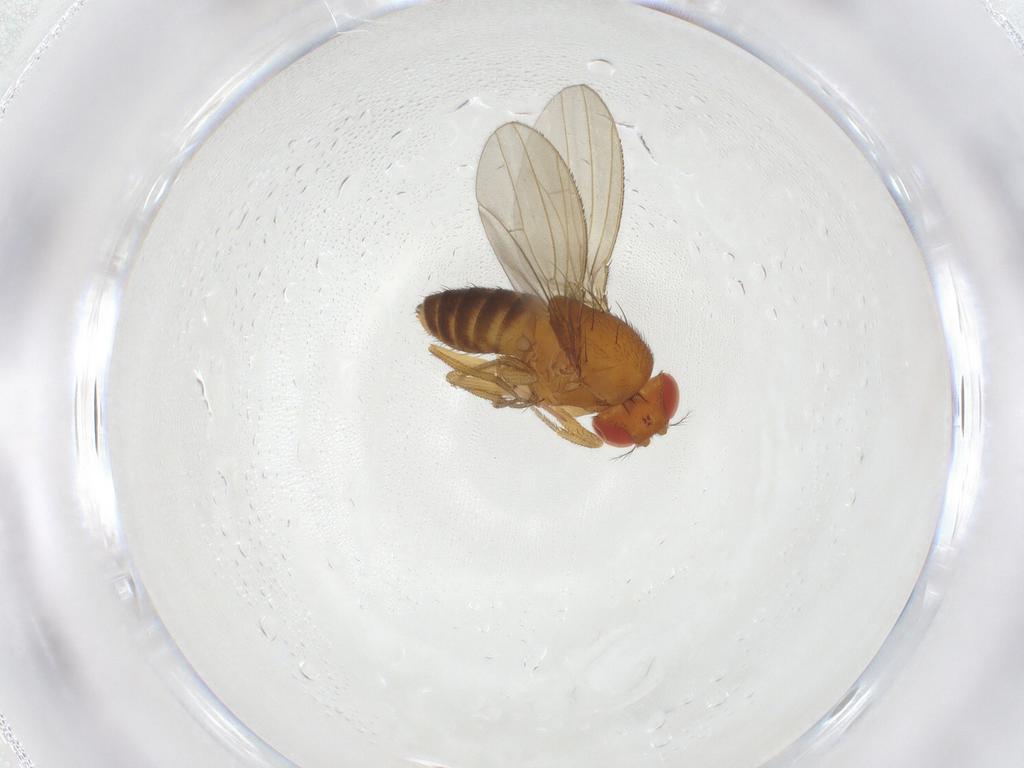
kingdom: Animalia
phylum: Arthropoda
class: Insecta
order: Diptera
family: Drosophilidae
